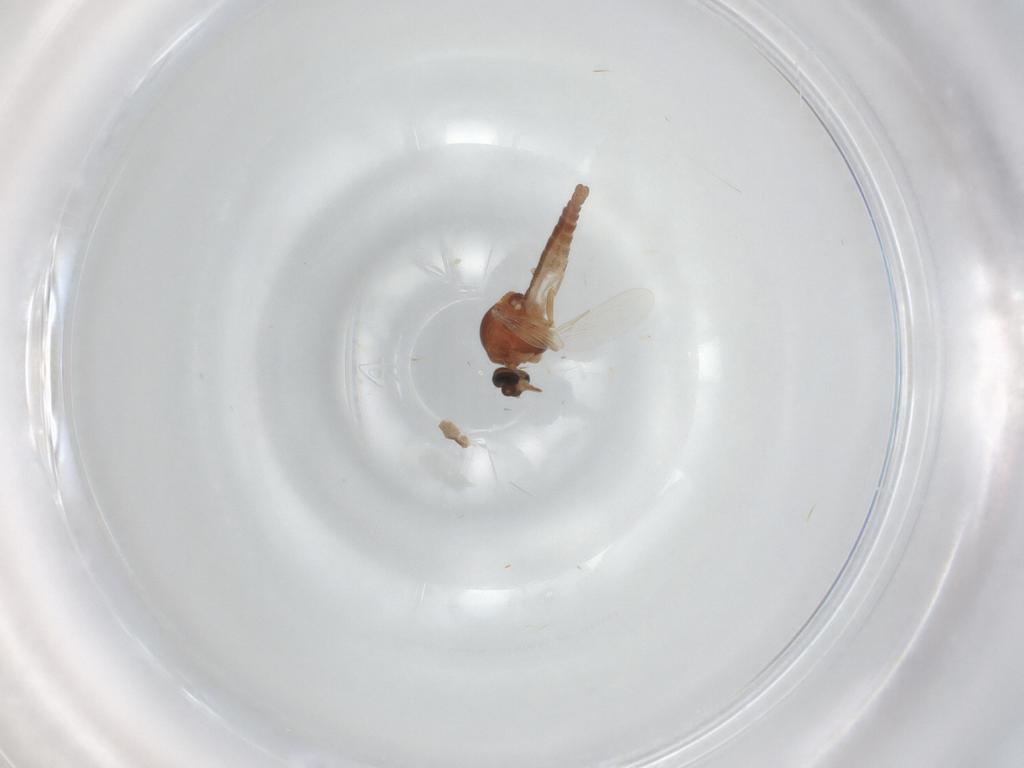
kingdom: Animalia
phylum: Arthropoda
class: Insecta
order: Diptera
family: Ceratopogonidae
